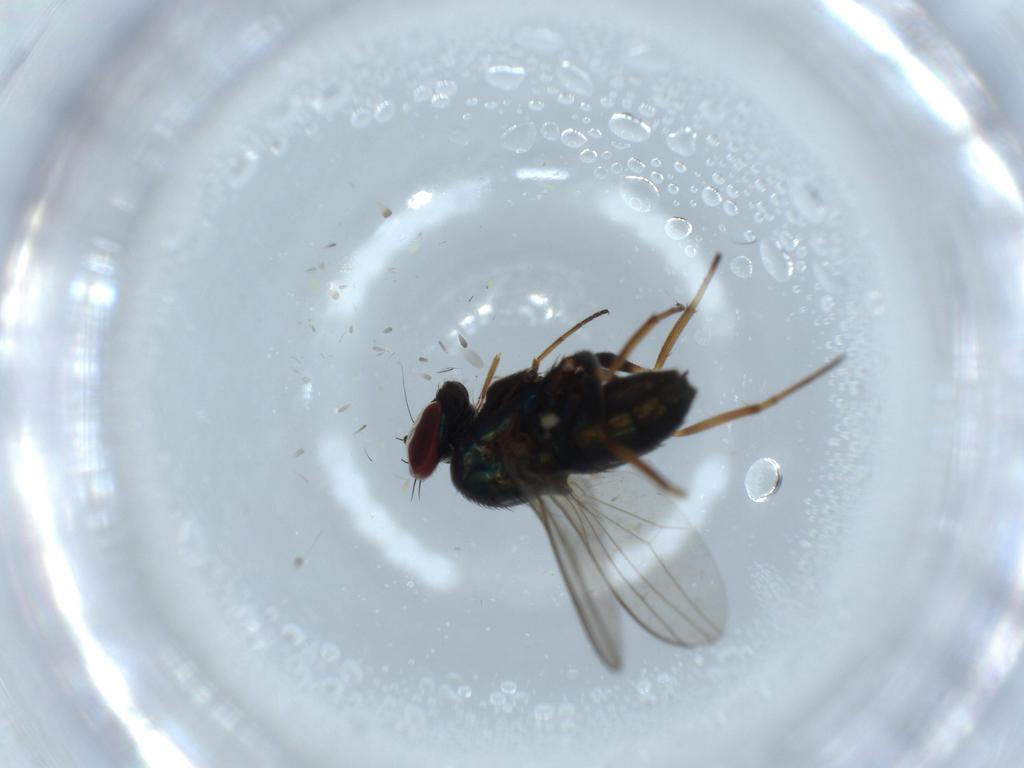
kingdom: Animalia
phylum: Arthropoda
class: Insecta
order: Diptera
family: Dolichopodidae
